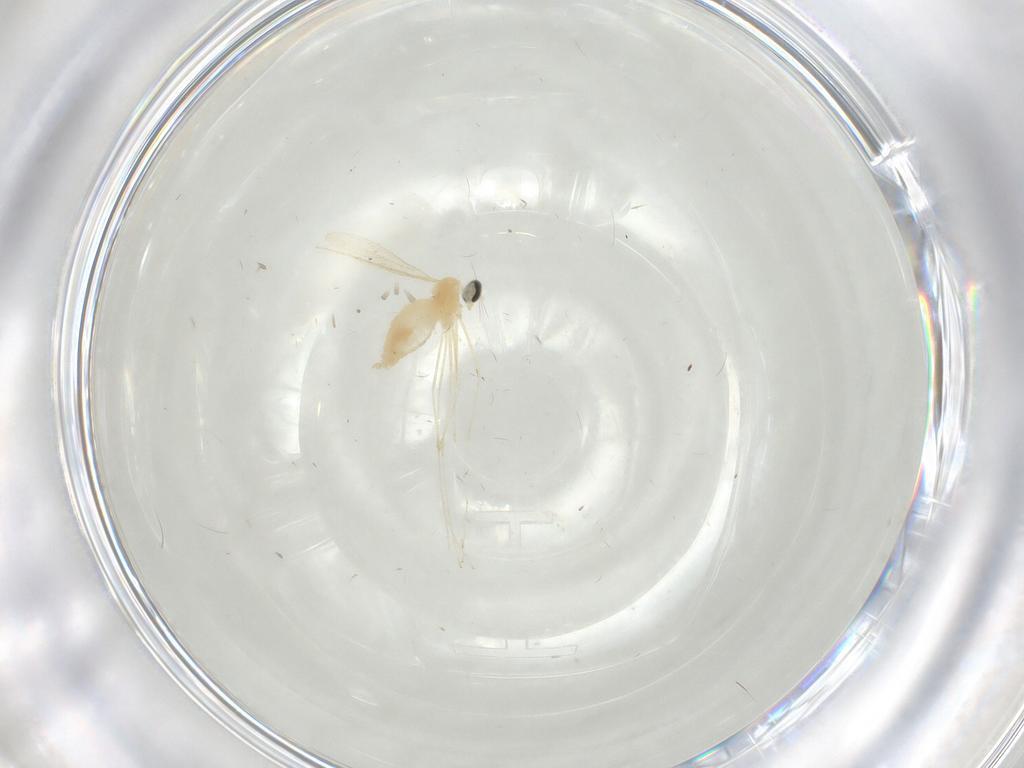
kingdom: Animalia
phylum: Arthropoda
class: Insecta
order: Diptera
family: Cecidomyiidae
